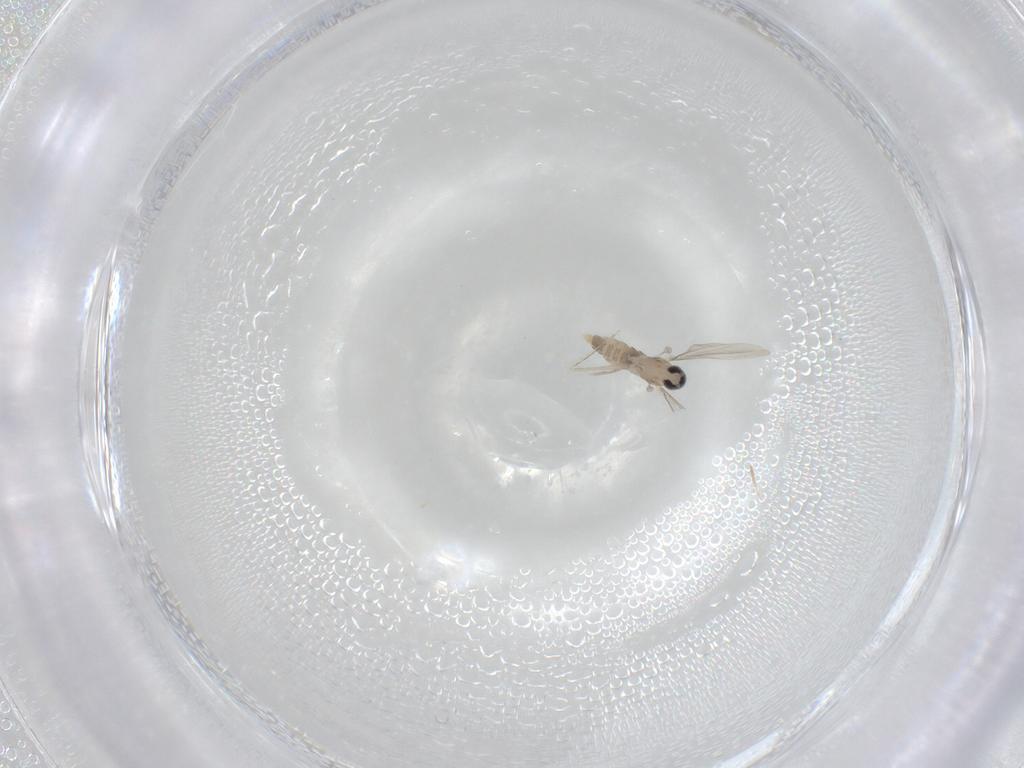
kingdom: Animalia
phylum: Arthropoda
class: Insecta
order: Diptera
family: Cecidomyiidae
